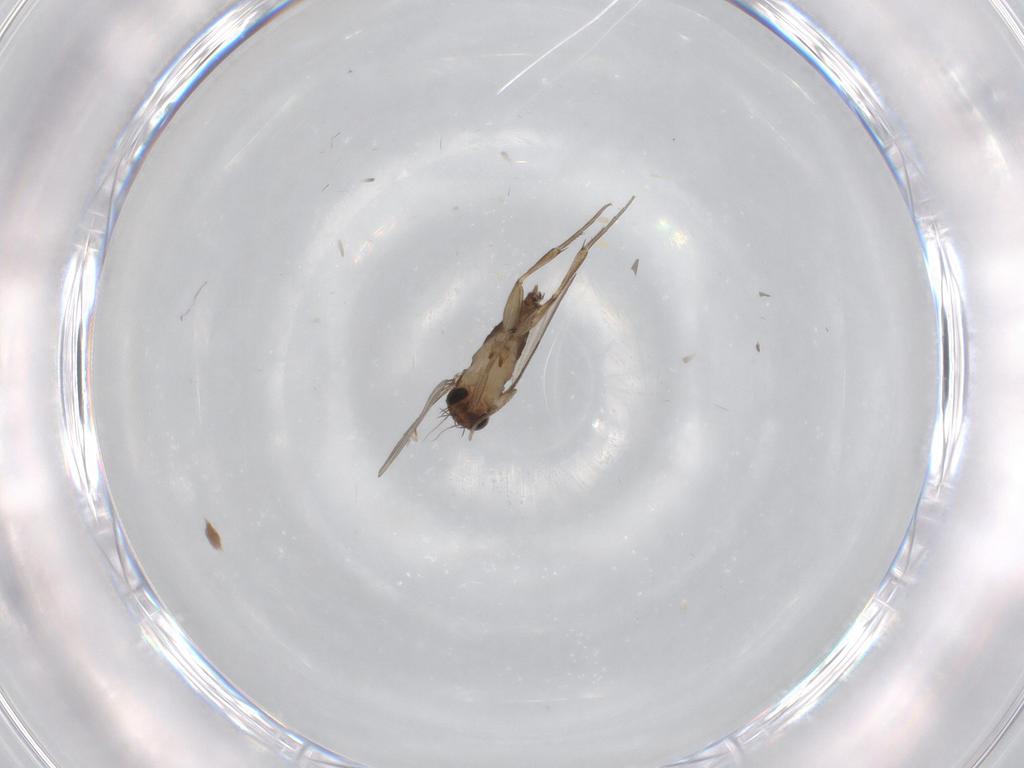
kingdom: Animalia
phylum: Arthropoda
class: Insecta
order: Diptera
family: Phoridae
